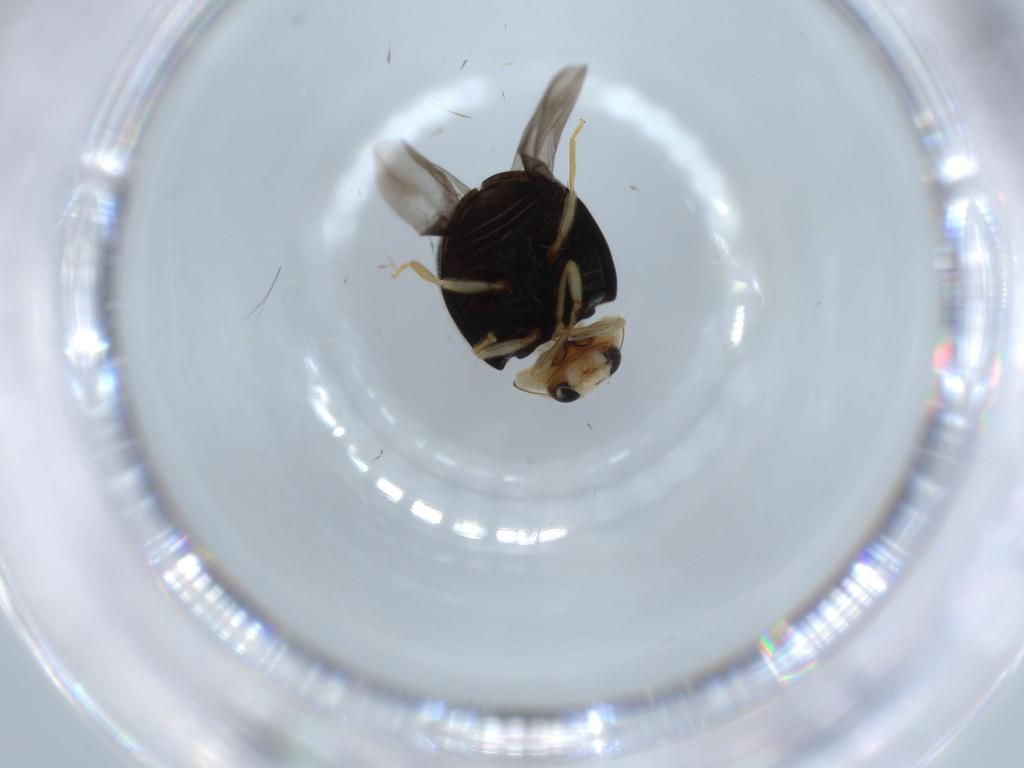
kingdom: Animalia
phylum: Arthropoda
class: Insecta
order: Coleoptera
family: Coccinellidae
